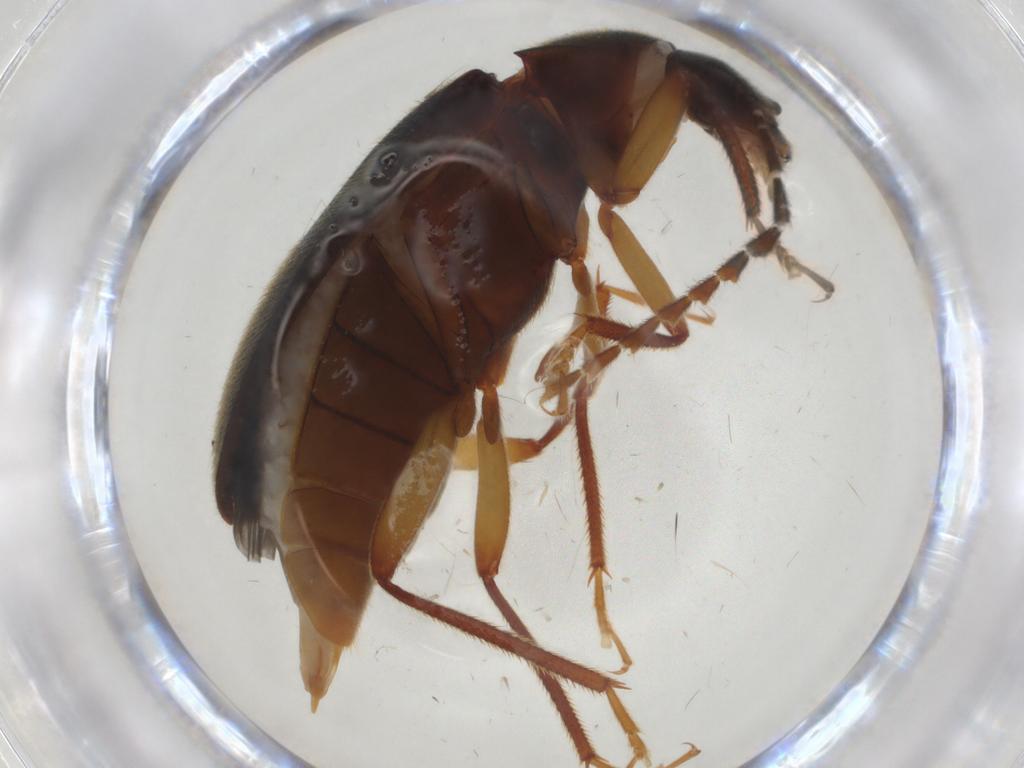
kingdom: Animalia
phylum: Arthropoda
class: Insecta
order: Coleoptera
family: Ptilodactylidae
